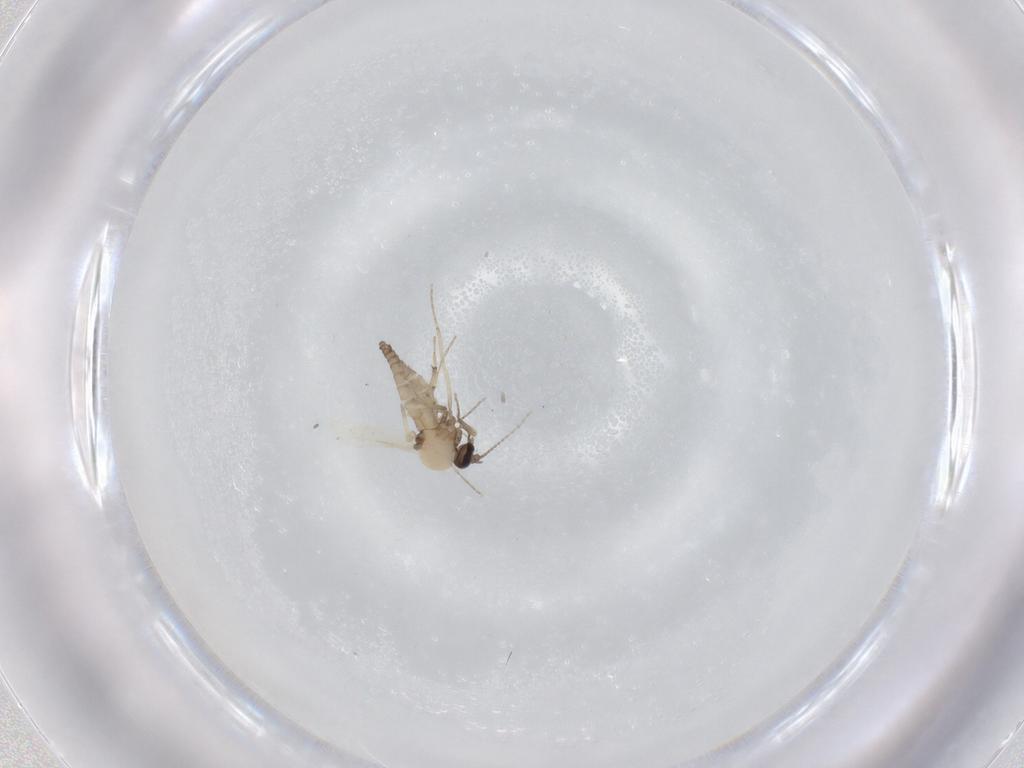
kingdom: Animalia
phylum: Arthropoda
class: Insecta
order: Diptera
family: Ceratopogonidae
